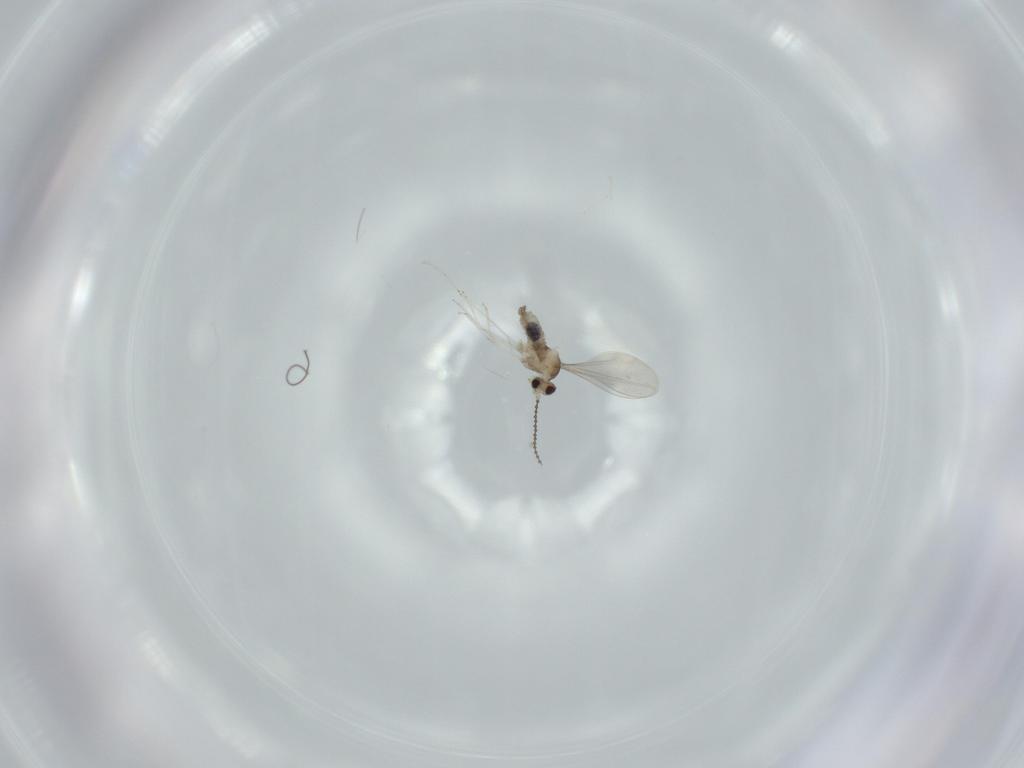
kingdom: Animalia
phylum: Arthropoda
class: Insecta
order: Diptera
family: Cecidomyiidae
